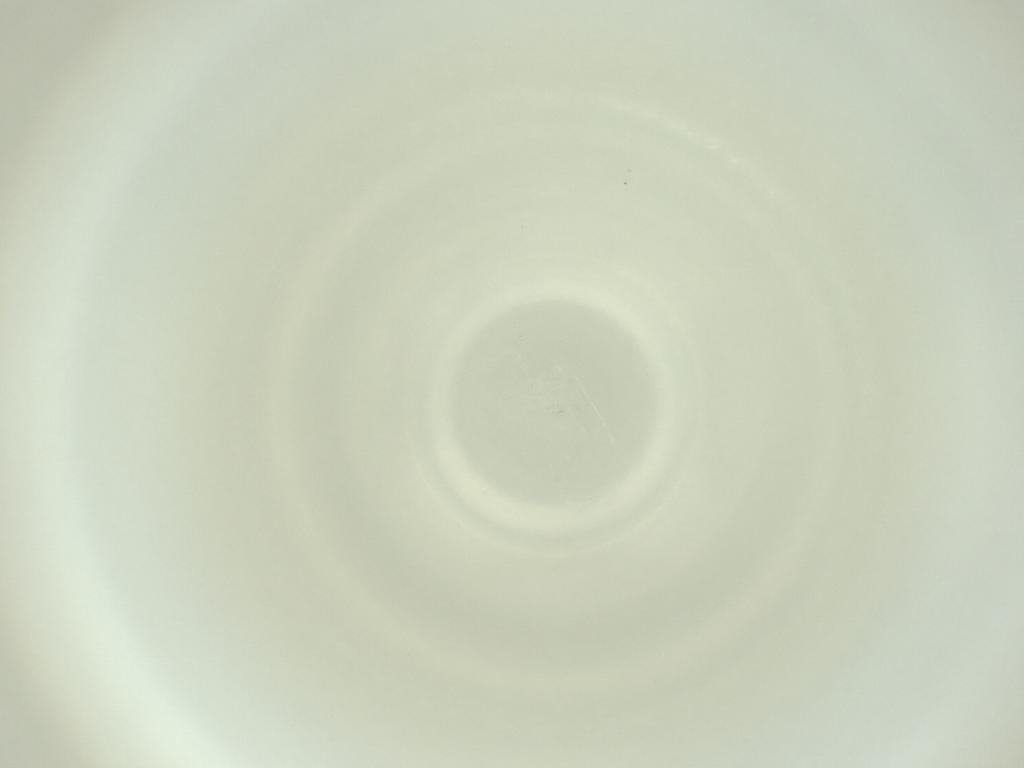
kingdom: Animalia
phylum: Arthropoda
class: Insecta
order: Diptera
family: Cecidomyiidae
